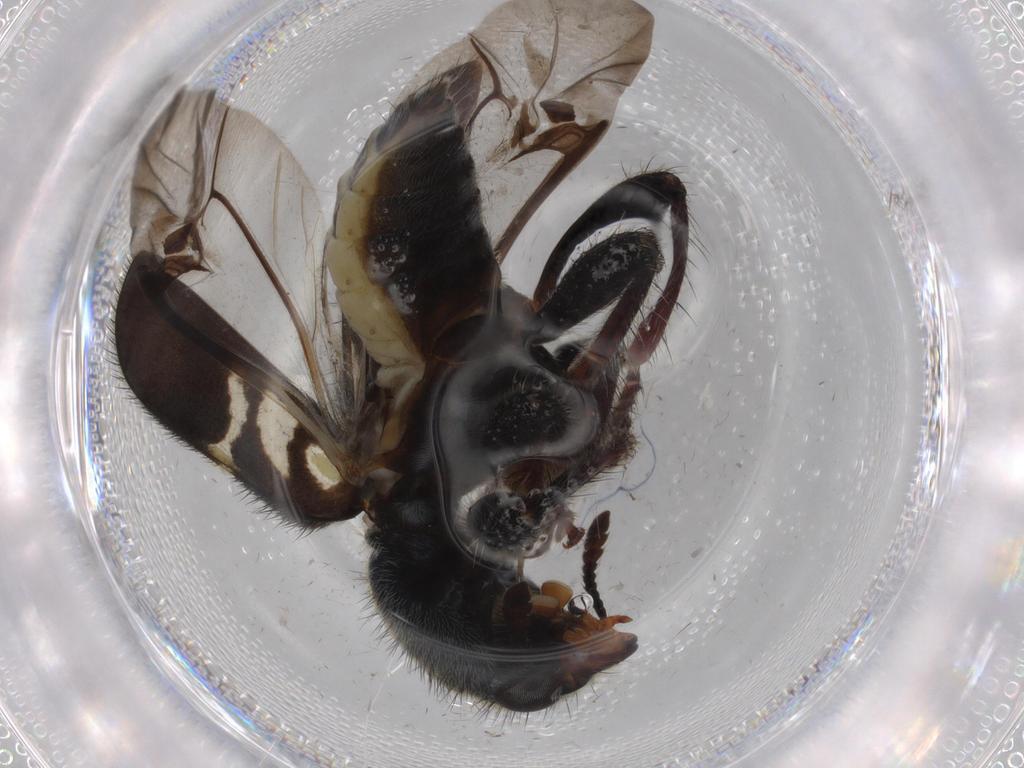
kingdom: Animalia
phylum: Arthropoda
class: Insecta
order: Coleoptera
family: Cleridae
